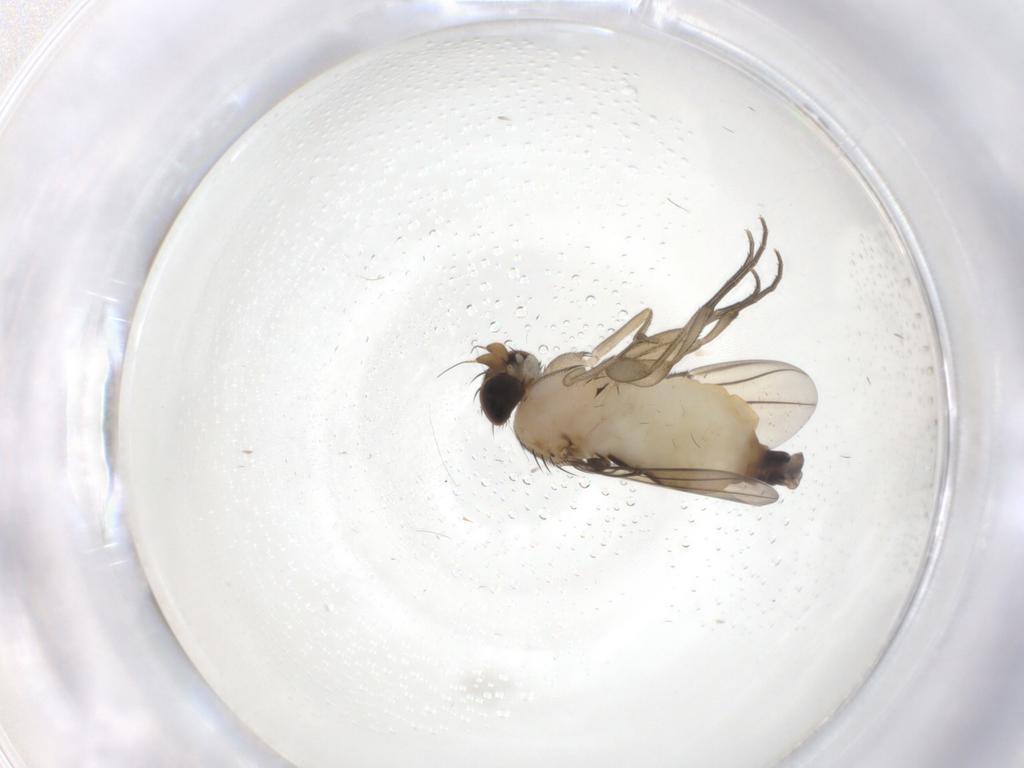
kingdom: Animalia
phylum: Arthropoda
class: Insecta
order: Diptera
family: Phoridae
